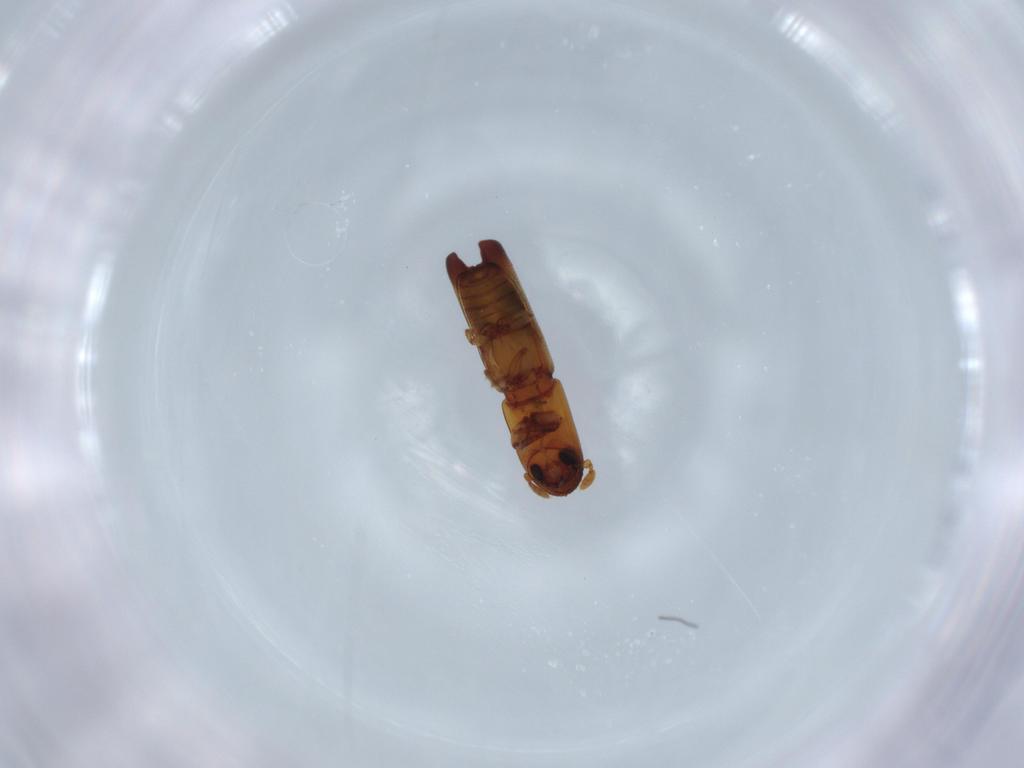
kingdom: Animalia
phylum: Arthropoda
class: Insecta
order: Coleoptera
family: Curculionidae
